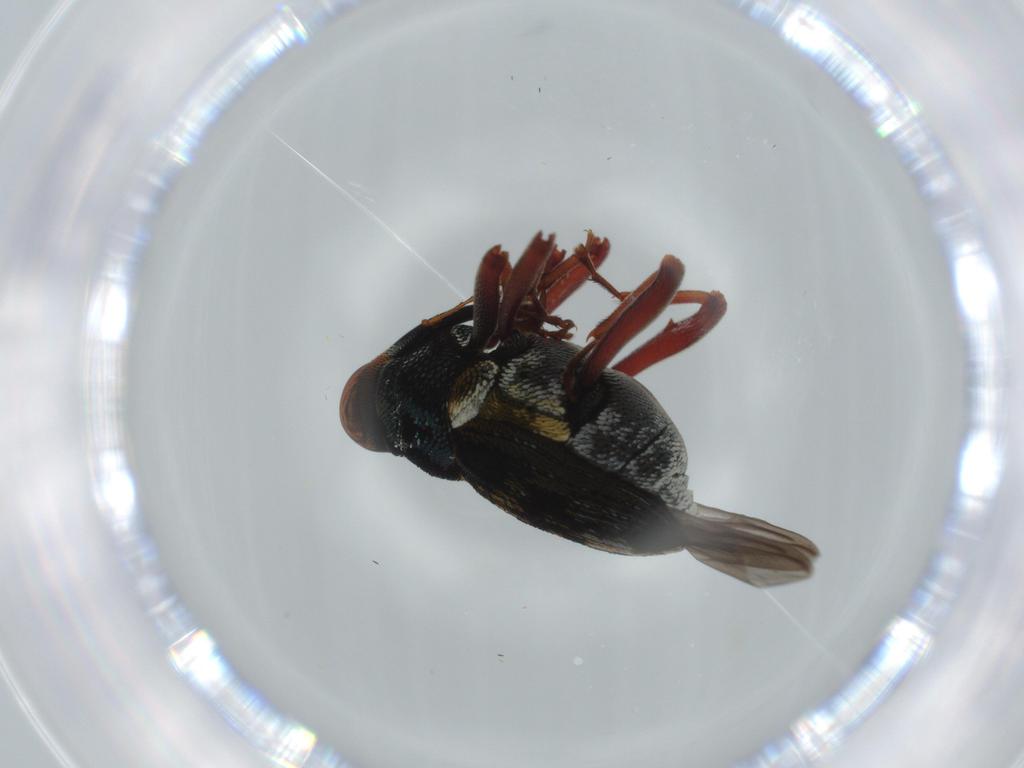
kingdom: Animalia
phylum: Arthropoda
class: Insecta
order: Coleoptera
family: Curculionidae
